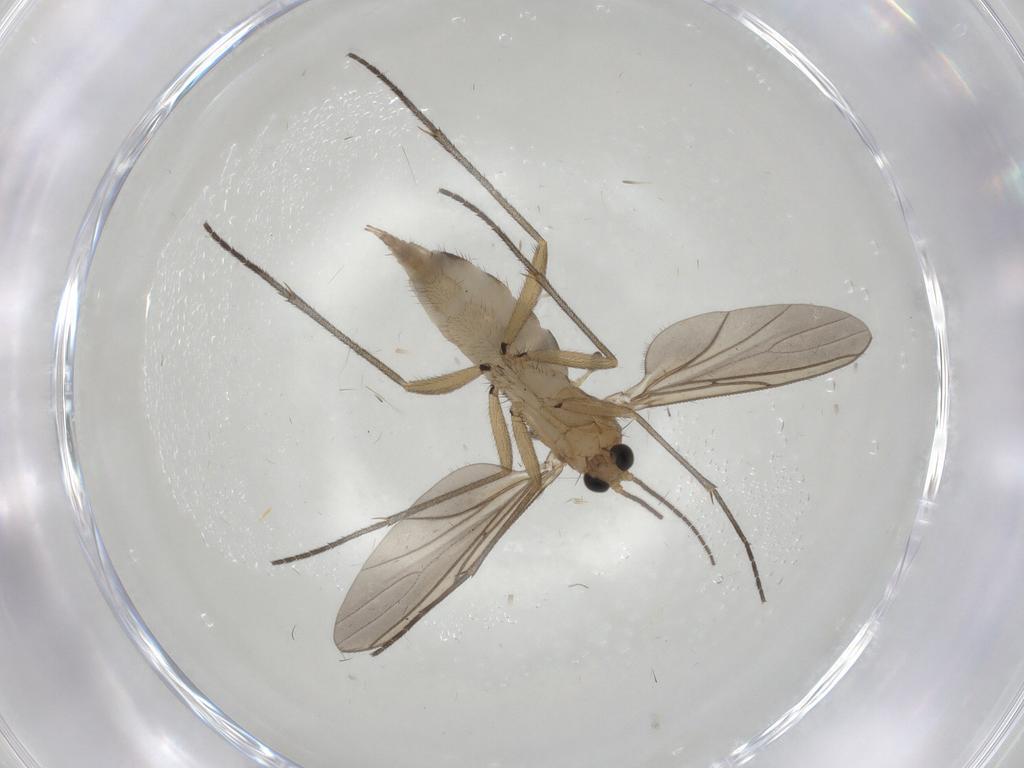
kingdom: Animalia
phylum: Arthropoda
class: Insecta
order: Diptera
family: Sciaridae
